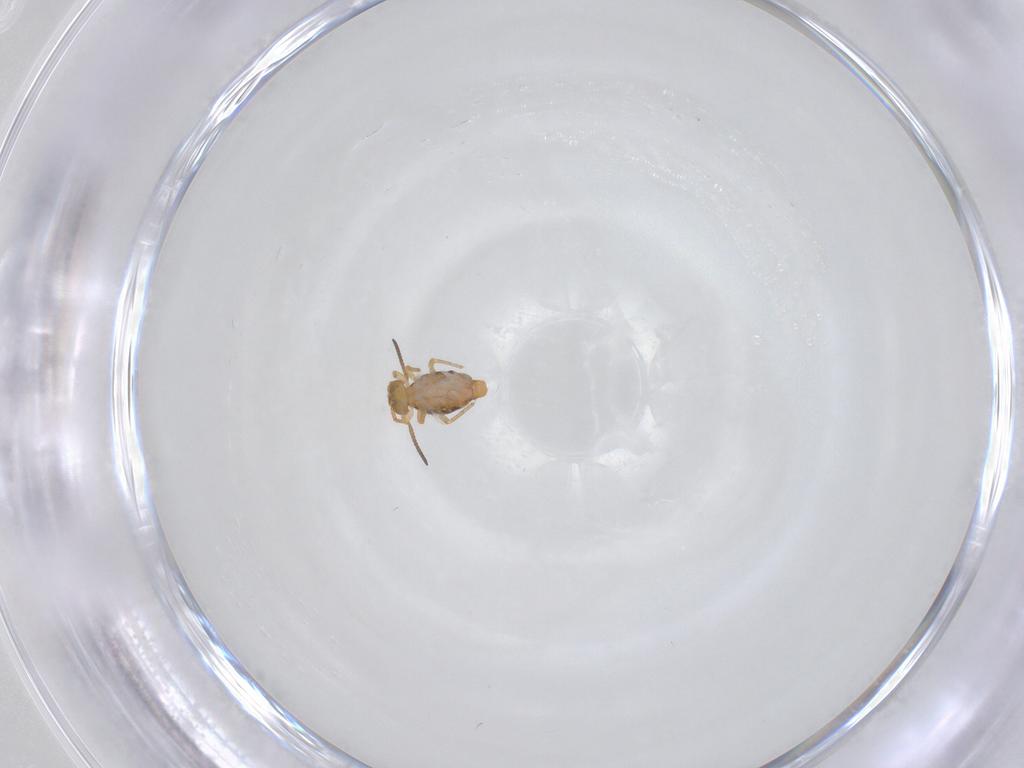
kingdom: Animalia
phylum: Arthropoda
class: Collembola
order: Symphypleona
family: Katiannidae
